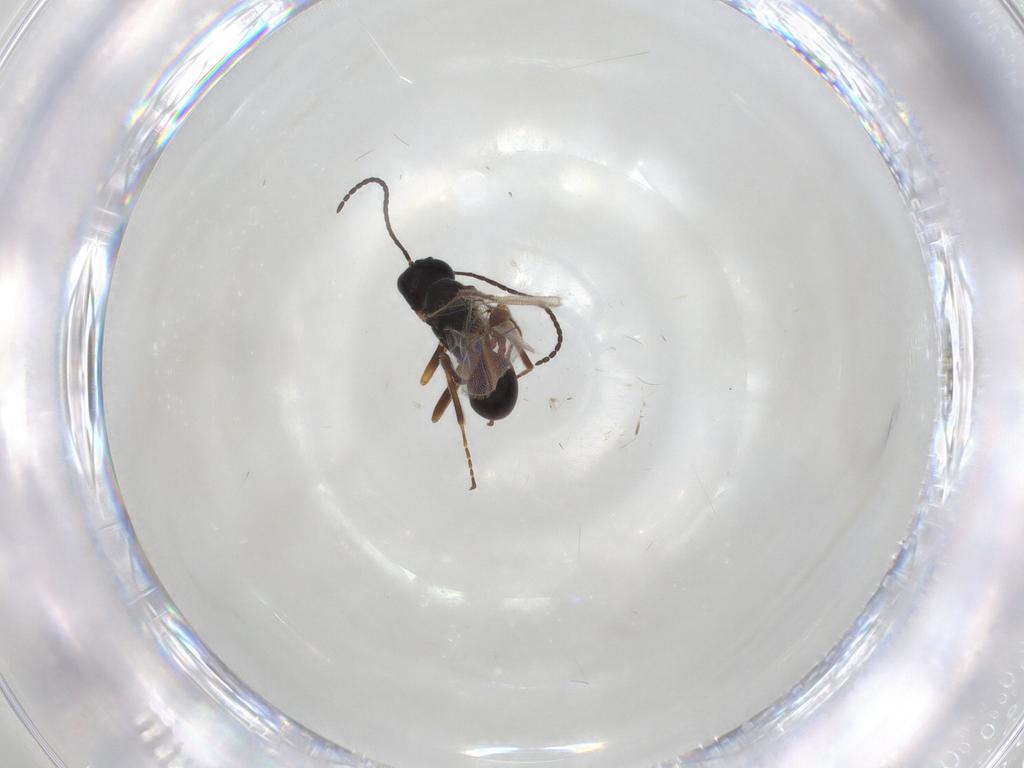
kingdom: Animalia
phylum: Arthropoda
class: Insecta
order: Hymenoptera
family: Braconidae
